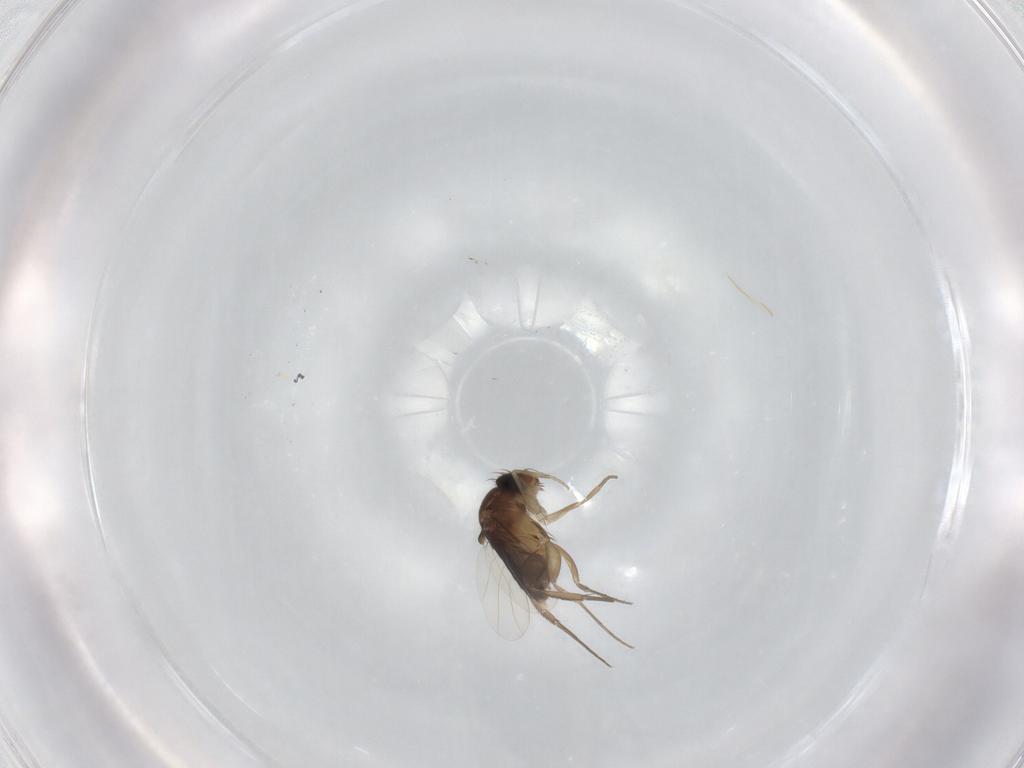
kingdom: Animalia
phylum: Arthropoda
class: Insecta
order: Diptera
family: Phoridae
